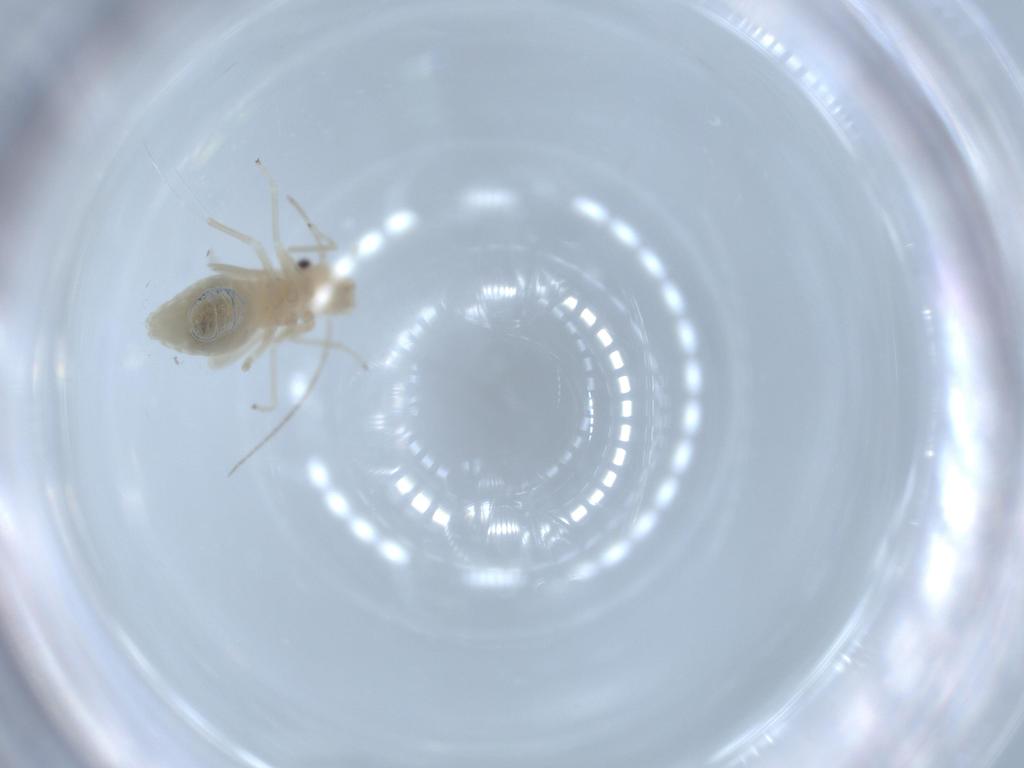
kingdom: Animalia
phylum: Arthropoda
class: Insecta
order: Psocodea
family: Caeciliusidae
